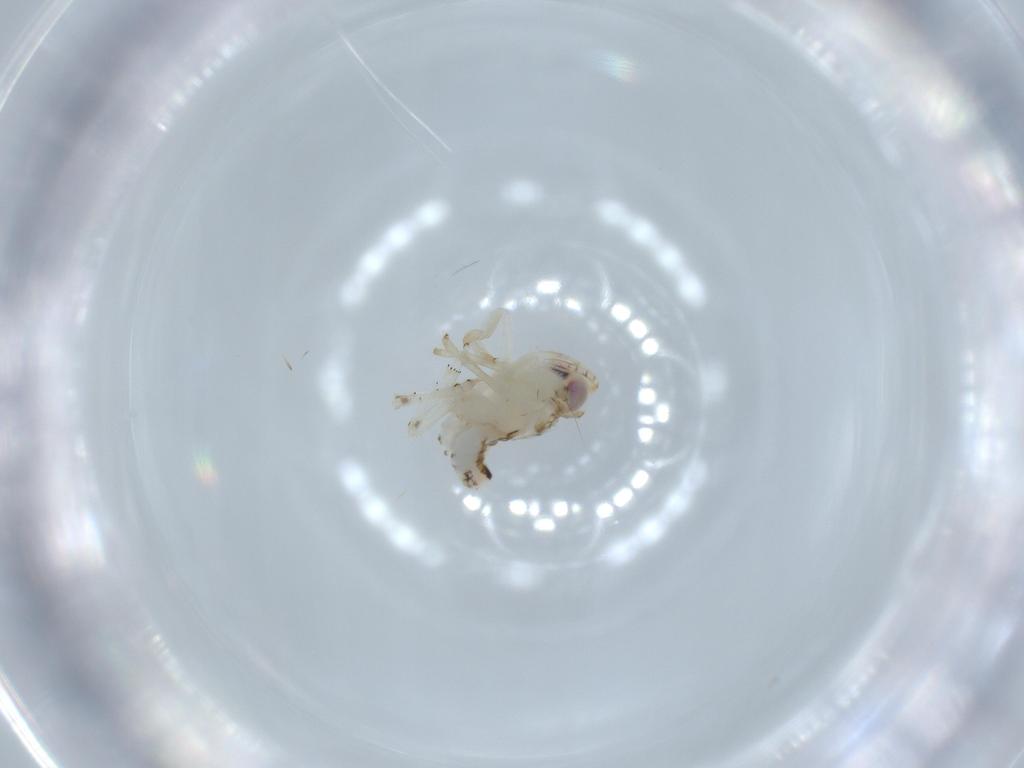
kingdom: Animalia
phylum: Arthropoda
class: Insecta
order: Hemiptera
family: Nogodinidae
